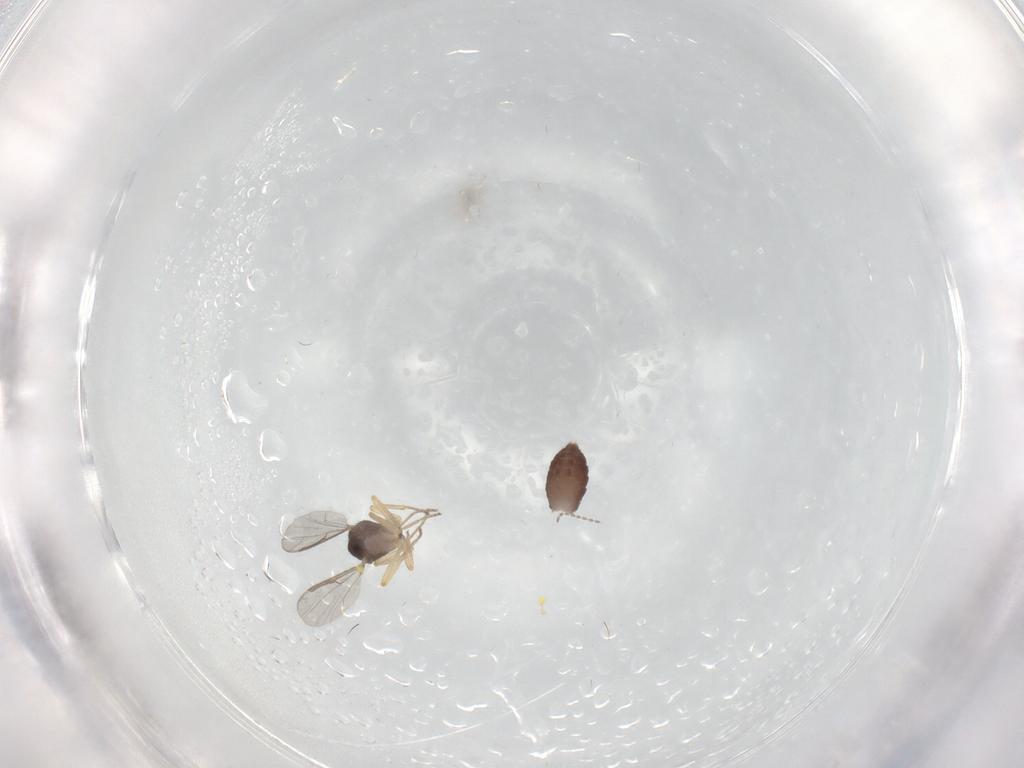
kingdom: Animalia
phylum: Arthropoda
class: Insecta
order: Diptera
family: Ceratopogonidae
